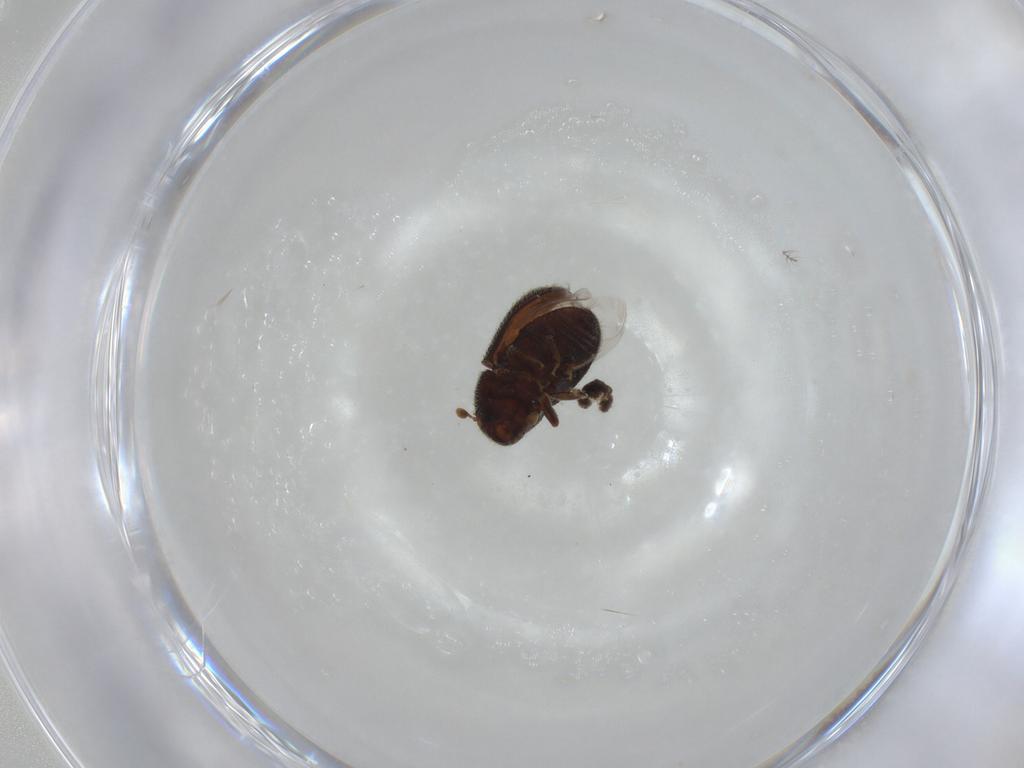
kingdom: Animalia
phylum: Arthropoda
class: Insecta
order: Coleoptera
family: Curculionidae
